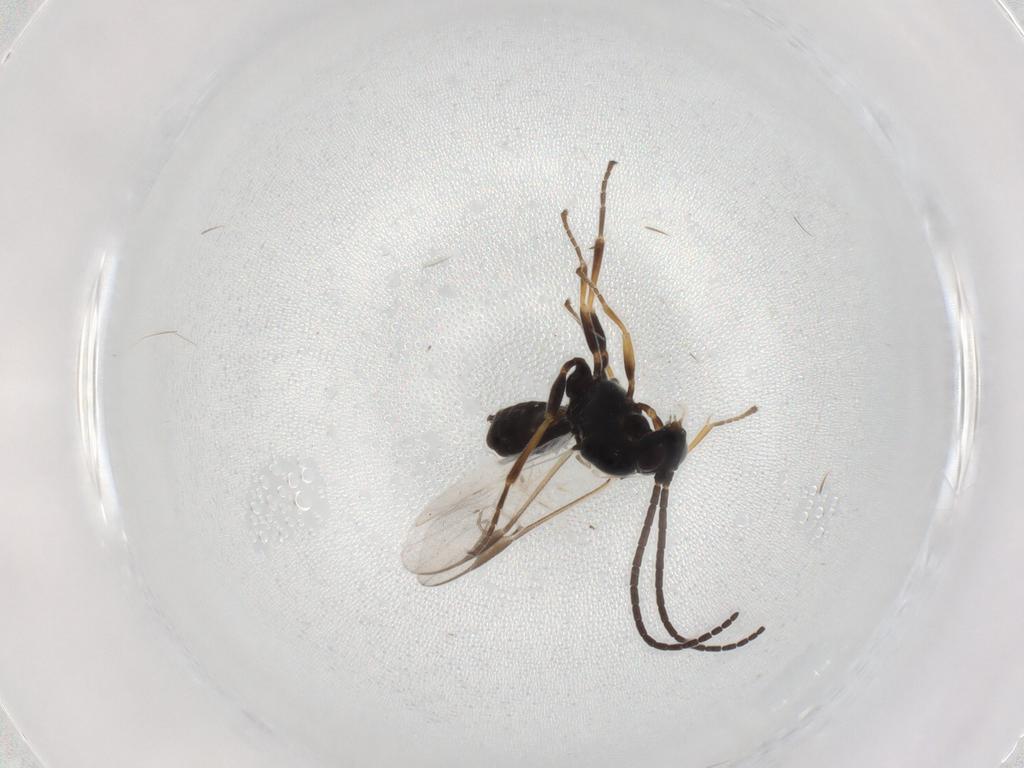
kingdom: Animalia
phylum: Arthropoda
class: Insecta
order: Hymenoptera
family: Braconidae
